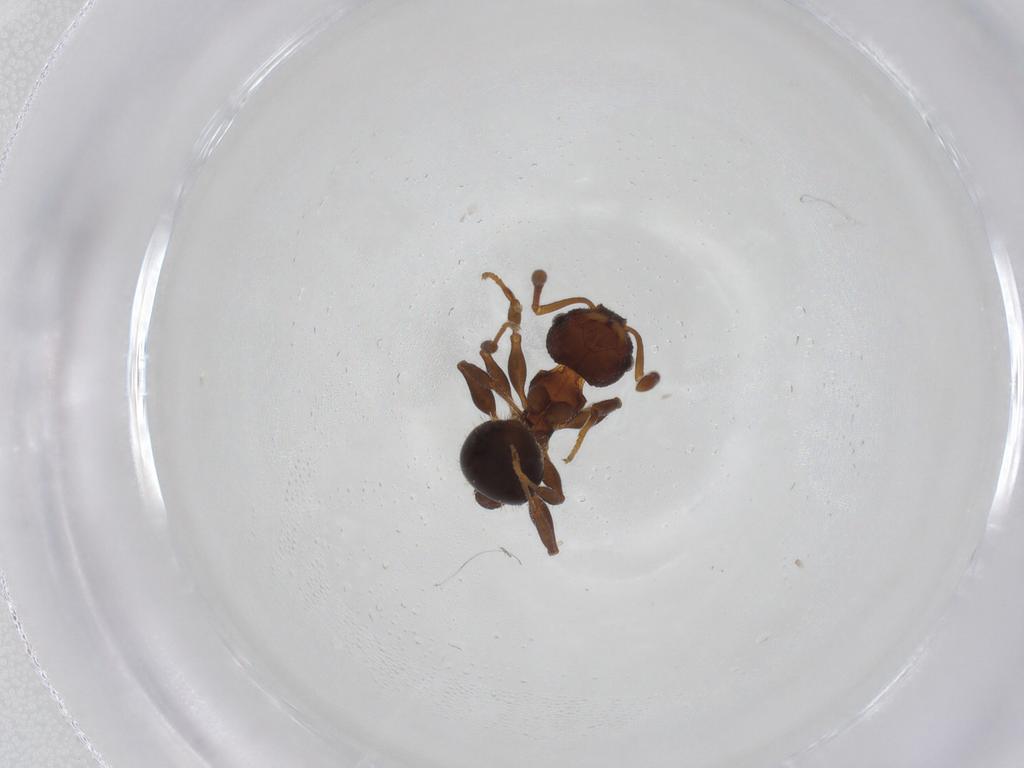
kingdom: Animalia
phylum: Arthropoda
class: Insecta
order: Hymenoptera
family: Formicidae
